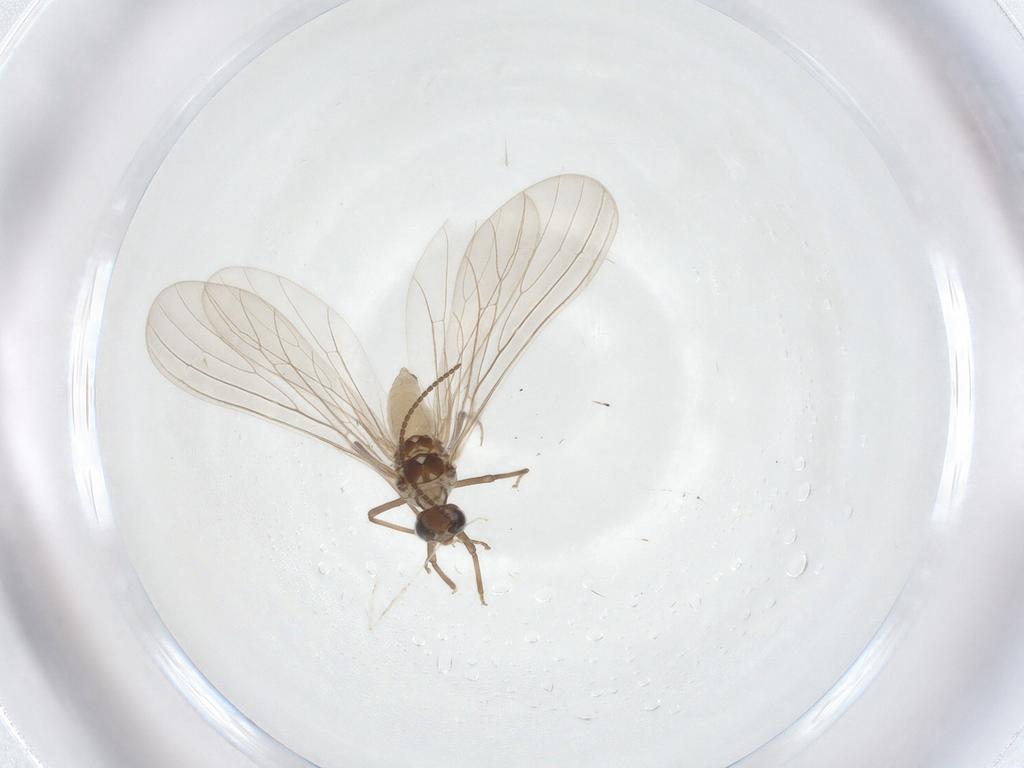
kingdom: Animalia
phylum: Arthropoda
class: Insecta
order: Neuroptera
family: Coniopterygidae
